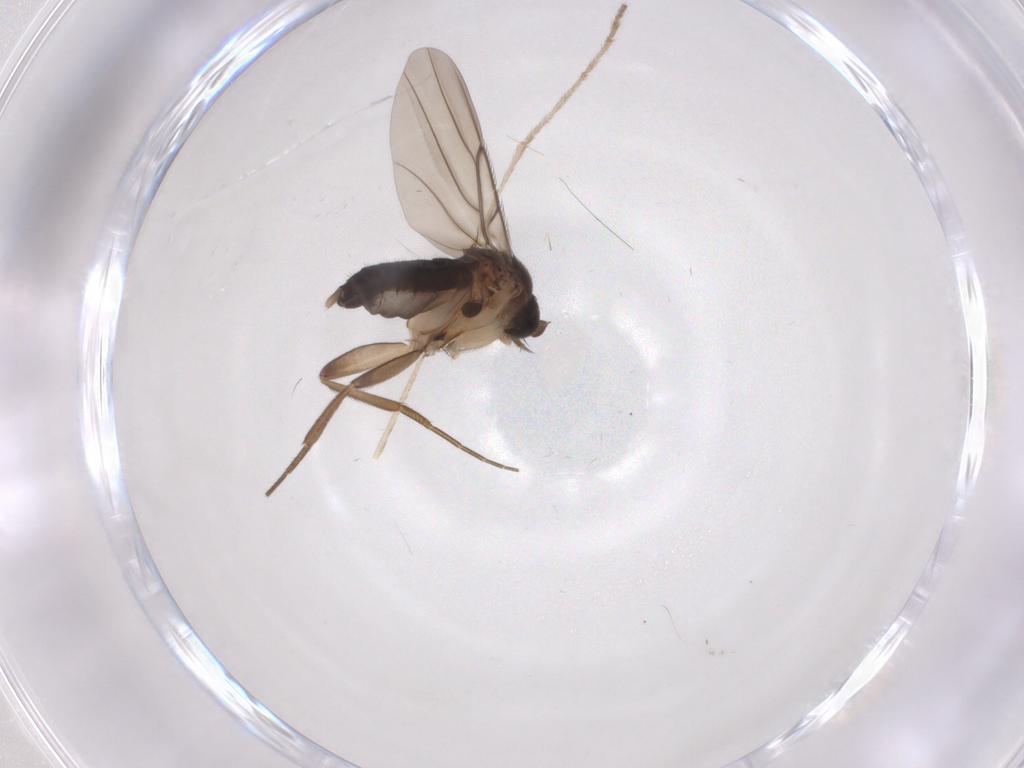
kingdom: Animalia
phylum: Arthropoda
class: Insecta
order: Diptera
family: Phoridae
